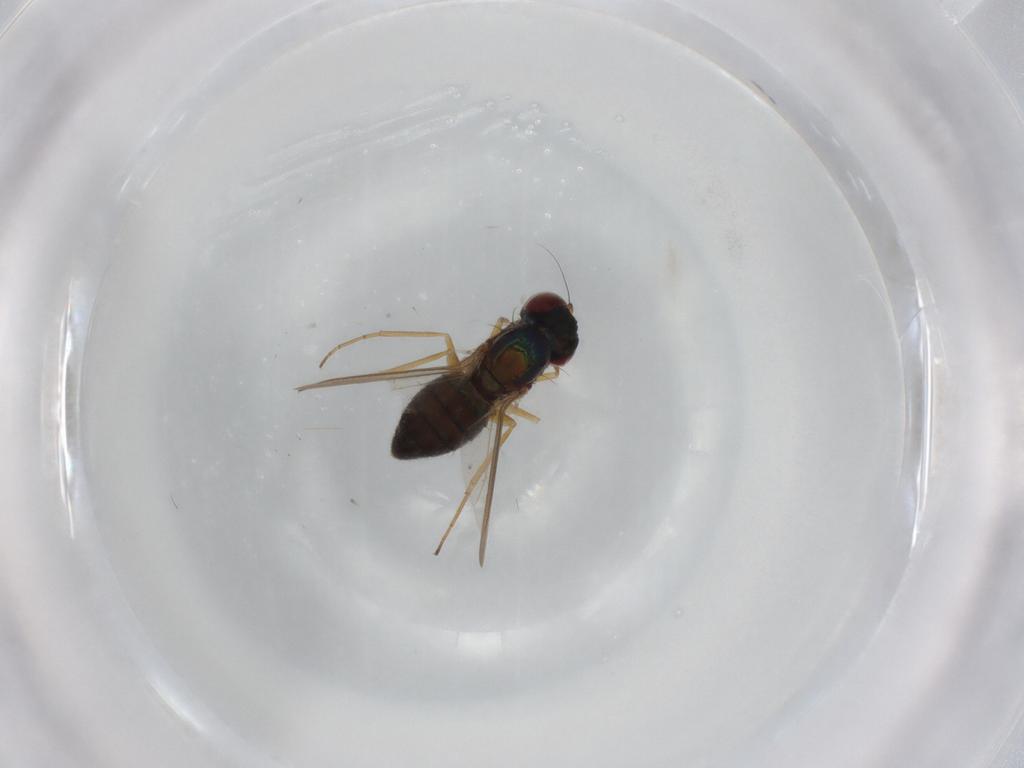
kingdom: Animalia
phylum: Arthropoda
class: Insecta
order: Diptera
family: Dolichopodidae
